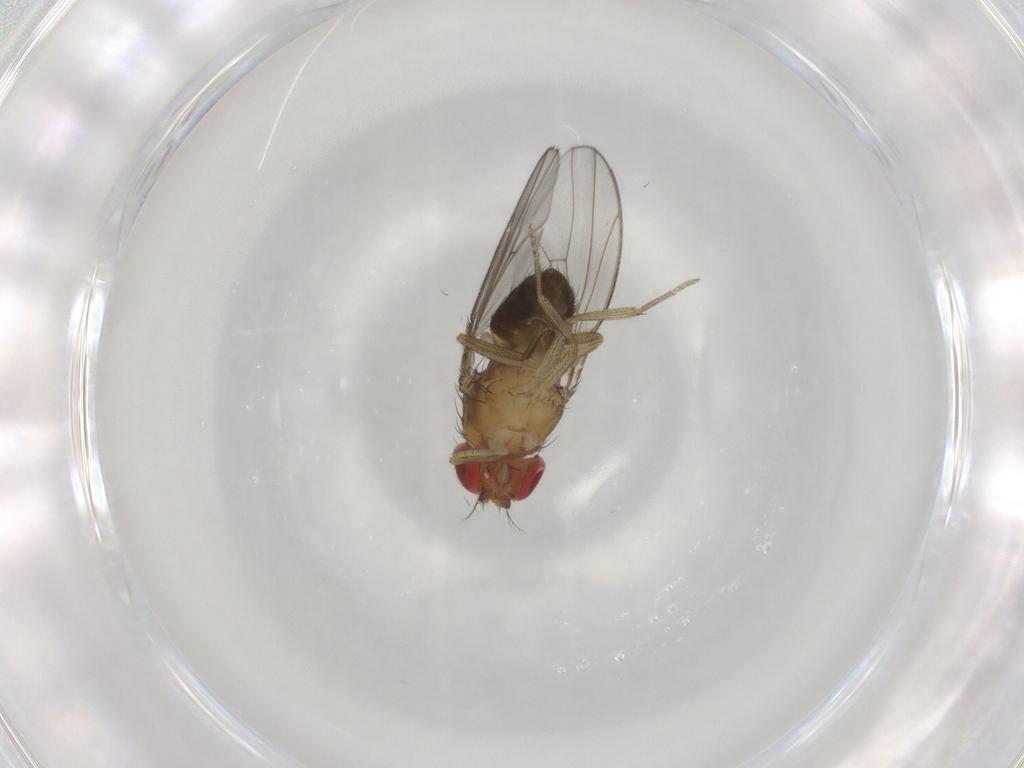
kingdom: Animalia
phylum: Arthropoda
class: Insecta
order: Diptera
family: Drosophilidae
